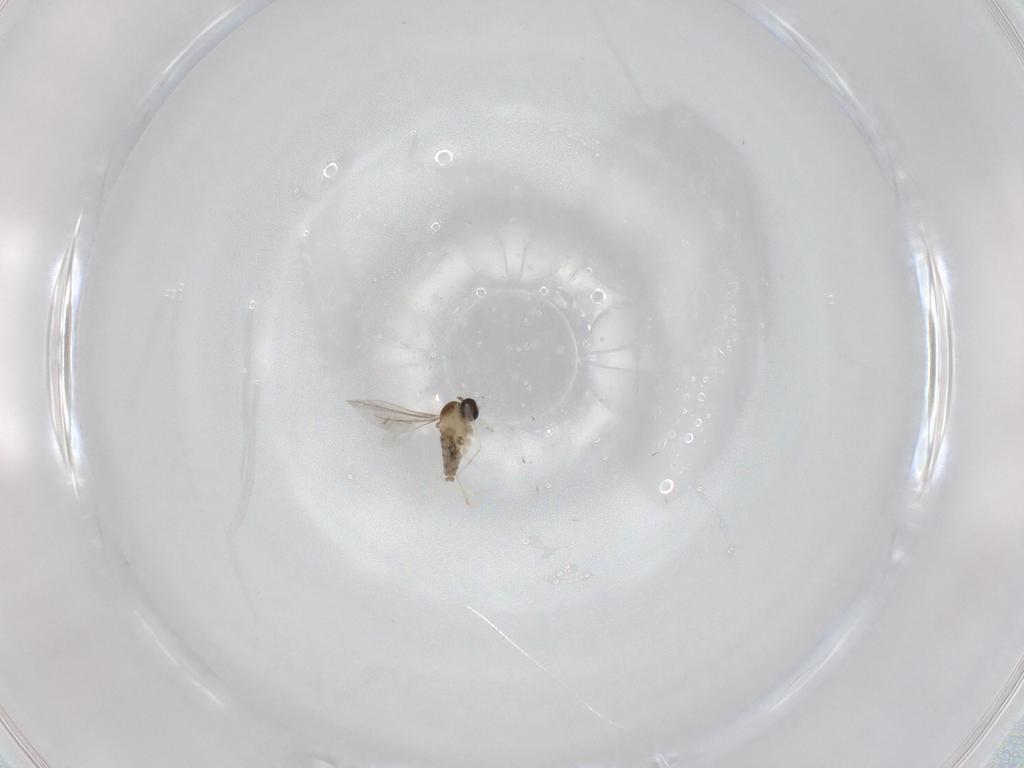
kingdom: Animalia
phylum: Arthropoda
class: Insecta
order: Diptera
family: Cecidomyiidae
